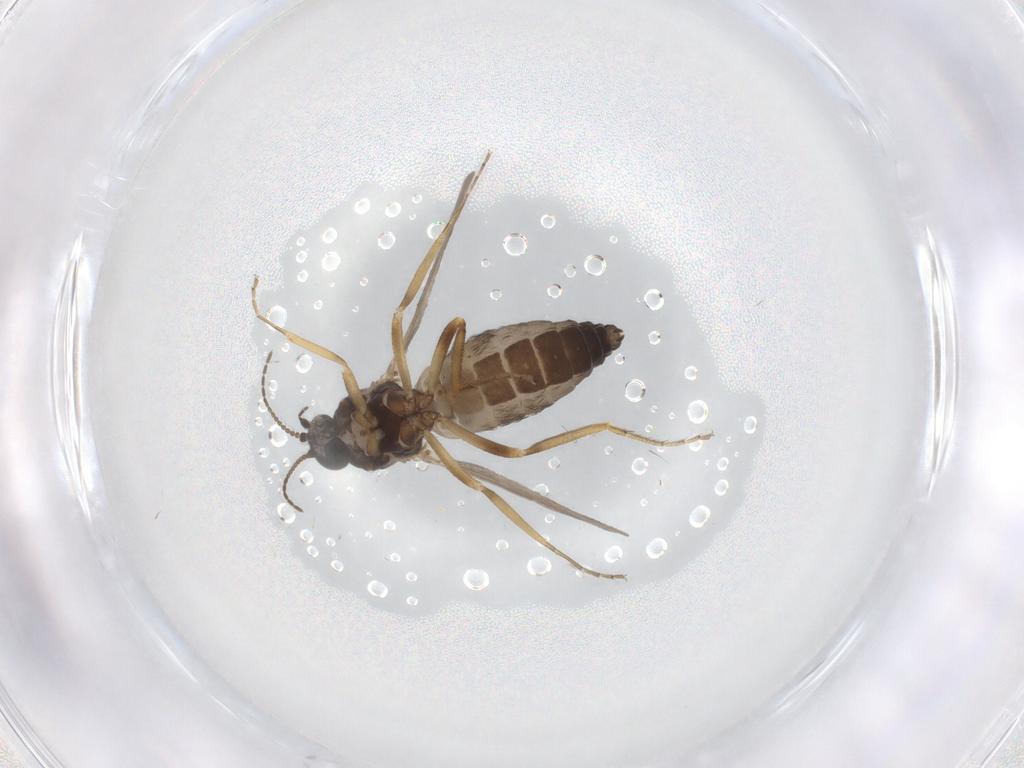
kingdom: Animalia
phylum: Arthropoda
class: Insecta
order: Diptera
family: Ceratopogonidae
